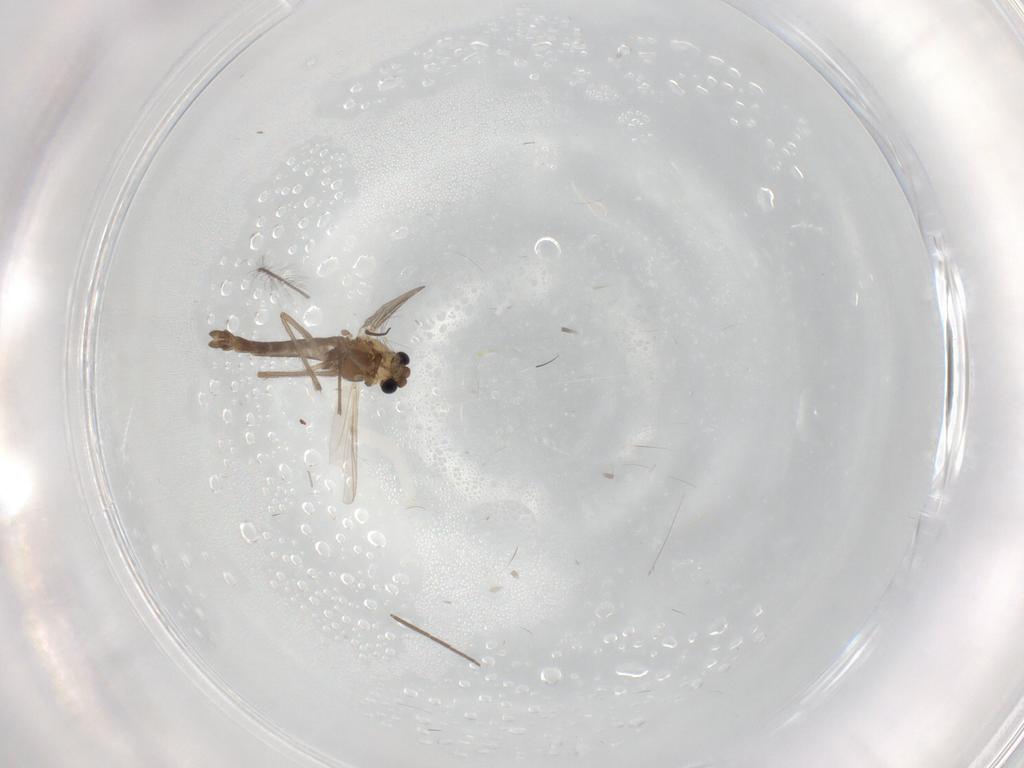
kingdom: Animalia
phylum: Arthropoda
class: Insecta
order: Diptera
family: Chironomidae
